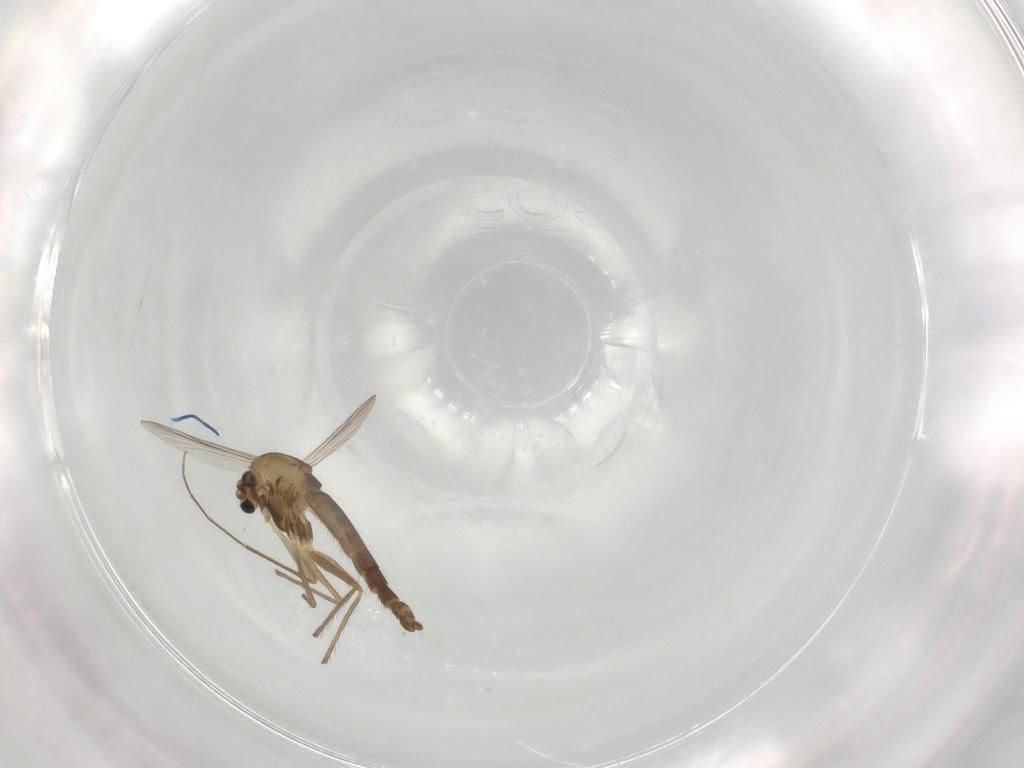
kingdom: Animalia
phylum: Arthropoda
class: Insecta
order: Diptera
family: Chironomidae
